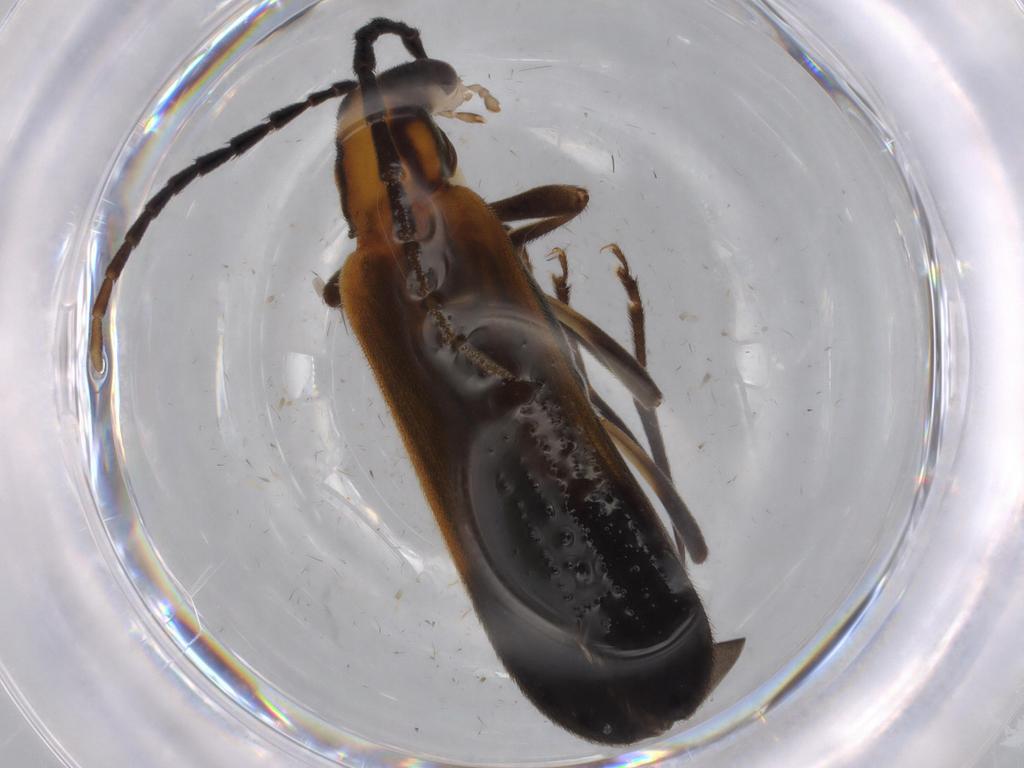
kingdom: Animalia
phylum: Arthropoda
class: Insecta
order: Coleoptera
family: Oedemeridae
